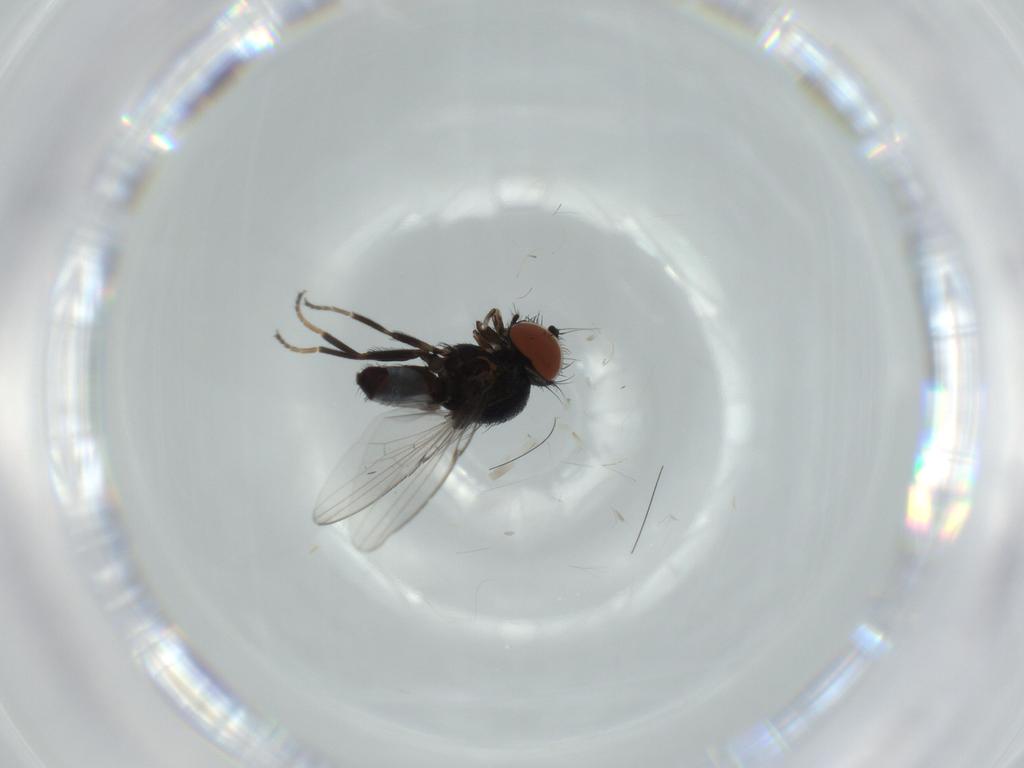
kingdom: Animalia
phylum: Arthropoda
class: Insecta
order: Diptera
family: Milichiidae
